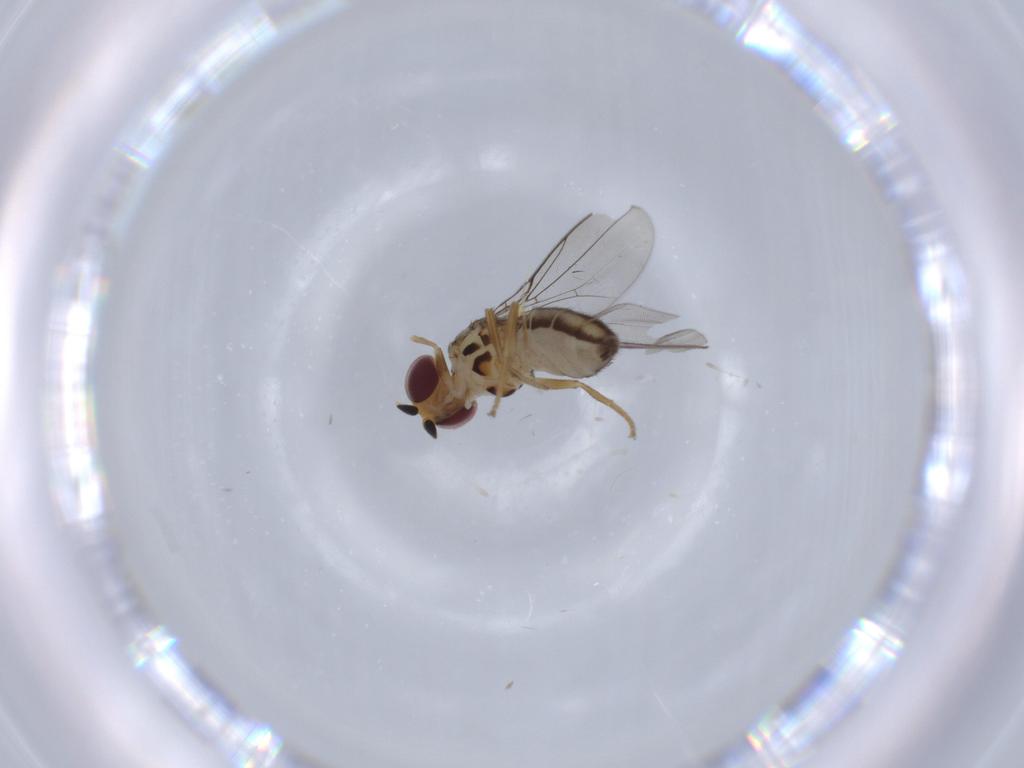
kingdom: Animalia
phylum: Arthropoda
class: Insecta
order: Diptera
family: Chloropidae
